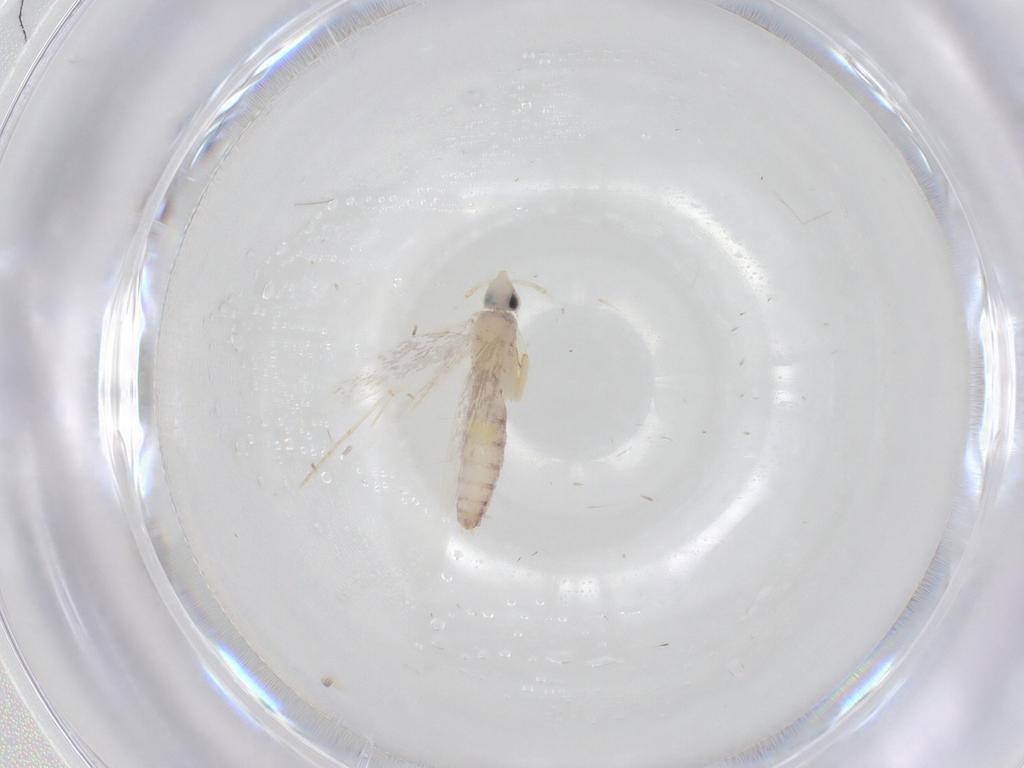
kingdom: Animalia
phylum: Arthropoda
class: Insecta
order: Lepidoptera
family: Tineidae
